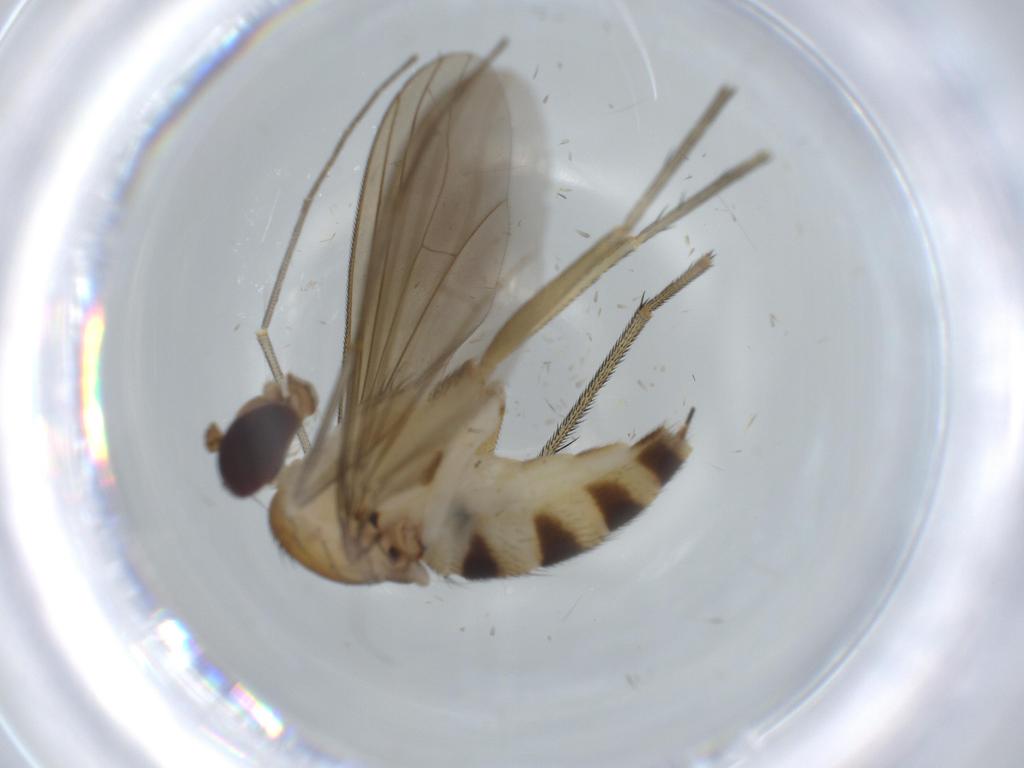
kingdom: Animalia
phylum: Arthropoda
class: Insecta
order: Diptera
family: Dolichopodidae
